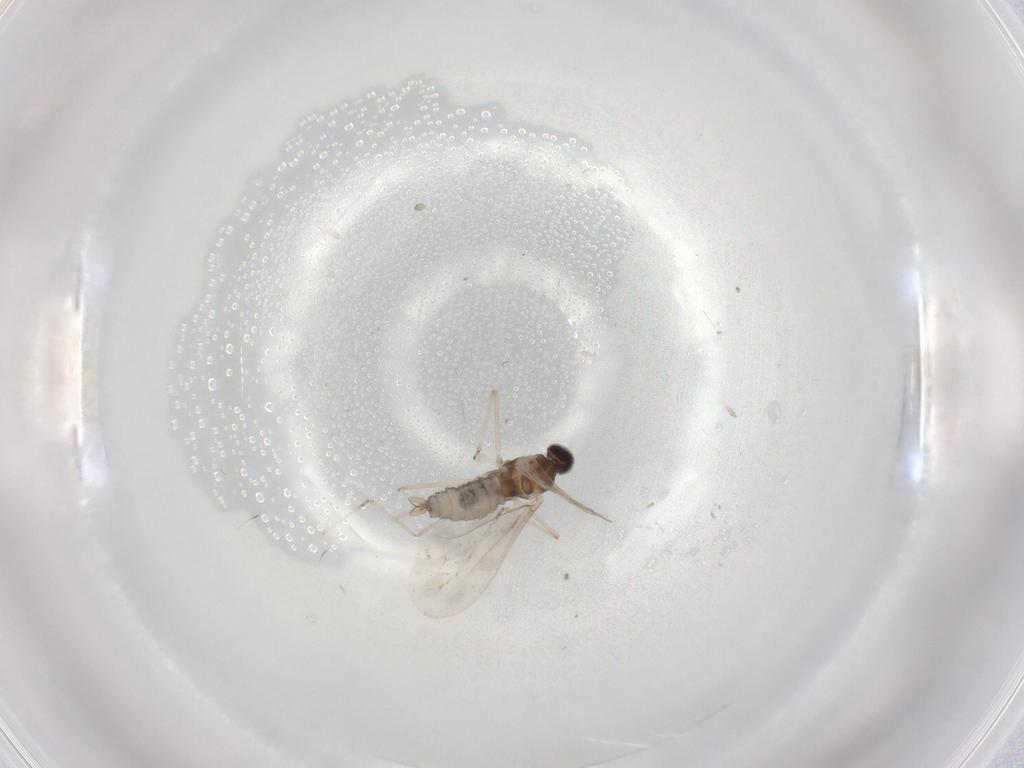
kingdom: Animalia
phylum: Arthropoda
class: Insecta
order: Diptera
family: Cecidomyiidae
